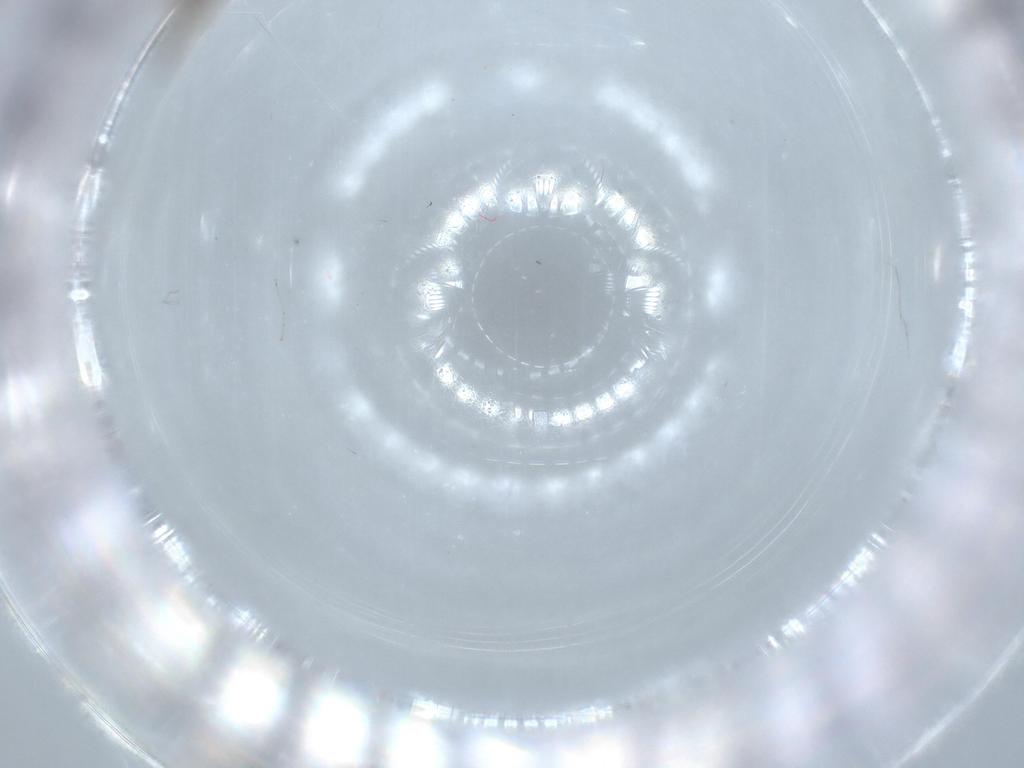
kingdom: Animalia
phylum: Arthropoda
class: Insecta
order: Diptera
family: Cecidomyiidae
